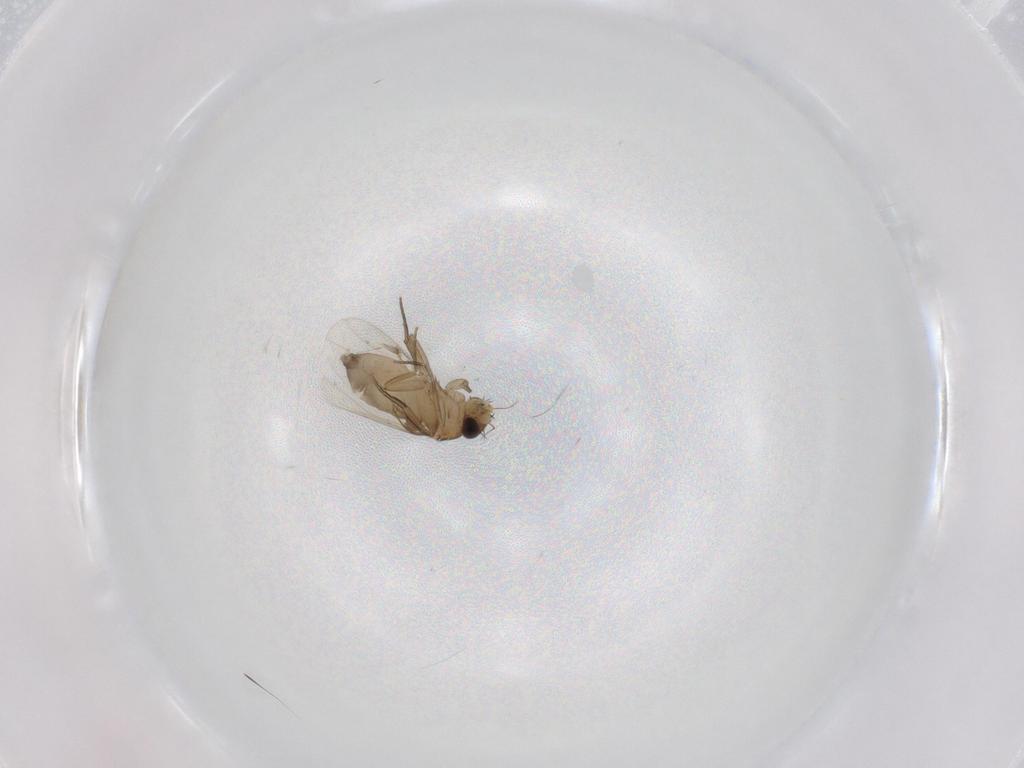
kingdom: Animalia
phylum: Arthropoda
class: Insecta
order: Diptera
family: Phoridae
